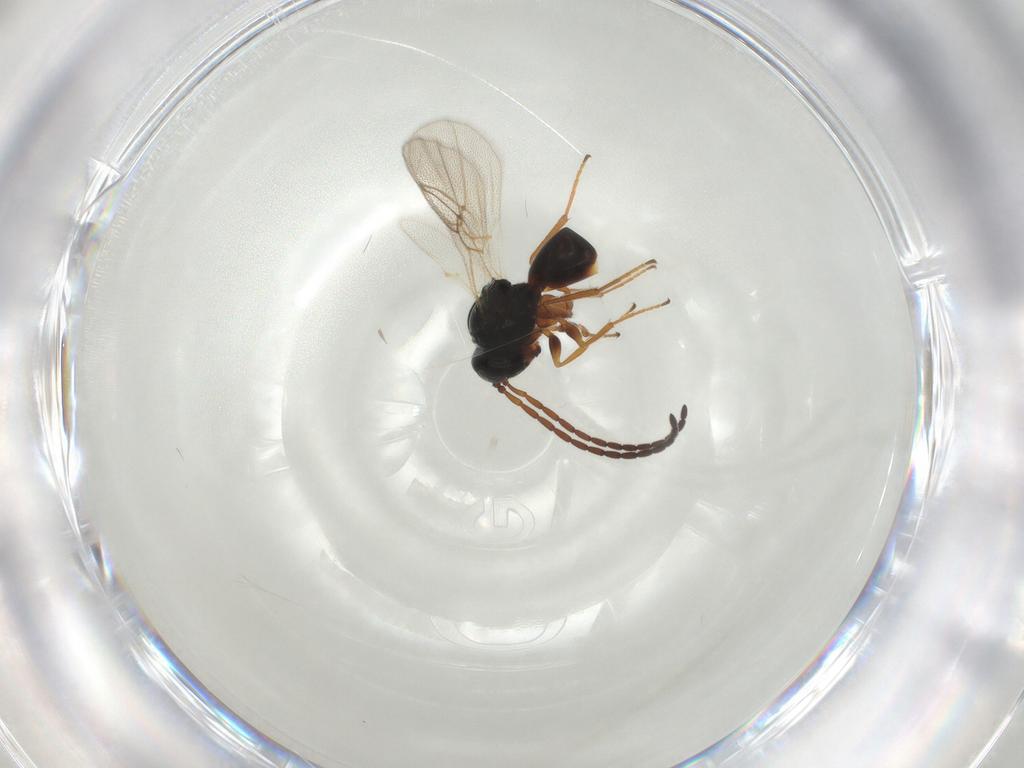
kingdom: Animalia
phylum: Arthropoda
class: Insecta
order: Hymenoptera
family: Figitidae
